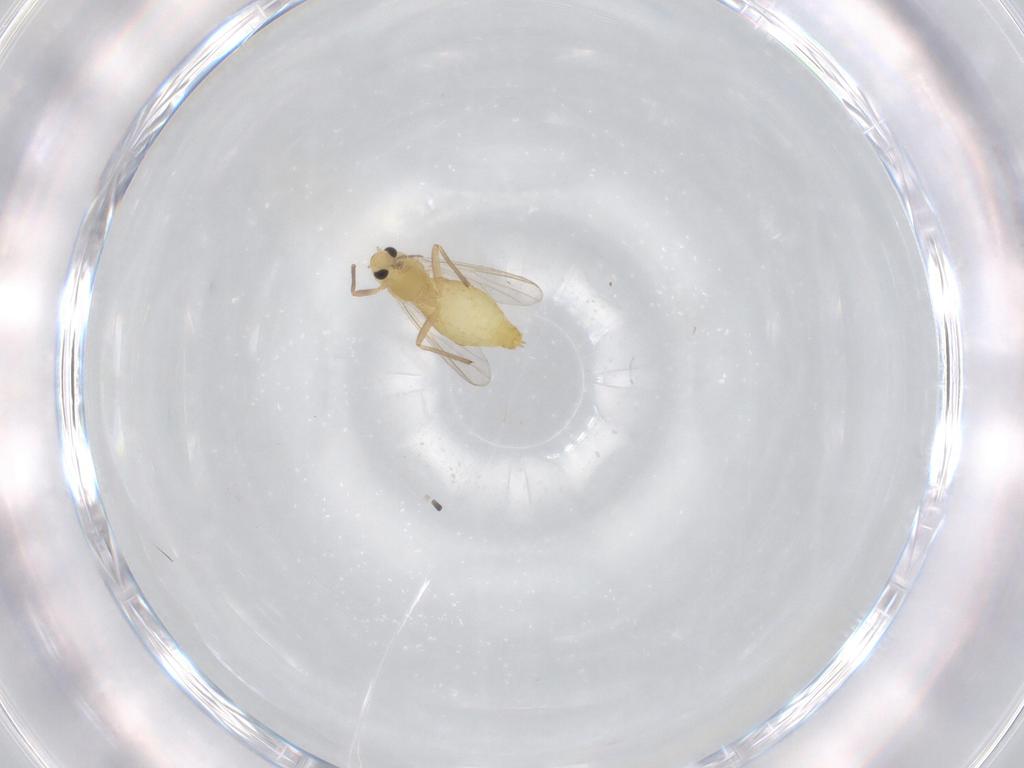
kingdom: Animalia
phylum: Arthropoda
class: Insecta
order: Diptera
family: Chironomidae
